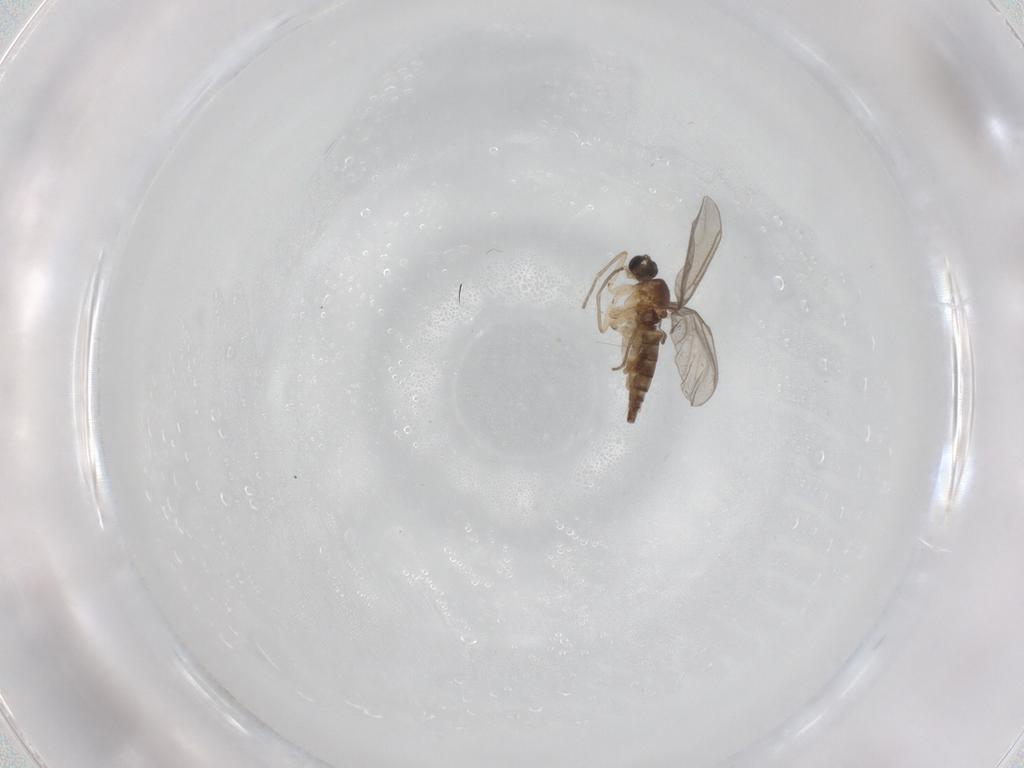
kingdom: Animalia
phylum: Arthropoda
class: Insecta
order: Diptera
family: Sciaridae
